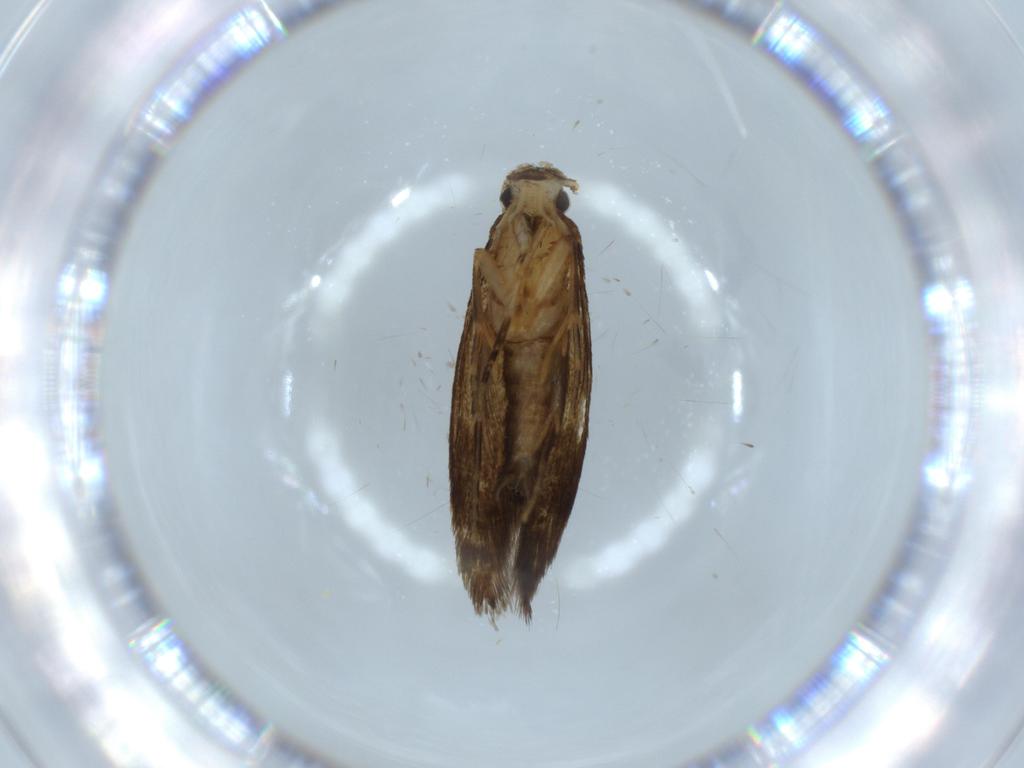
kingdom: Animalia
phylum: Arthropoda
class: Insecta
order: Lepidoptera
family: Tineidae
